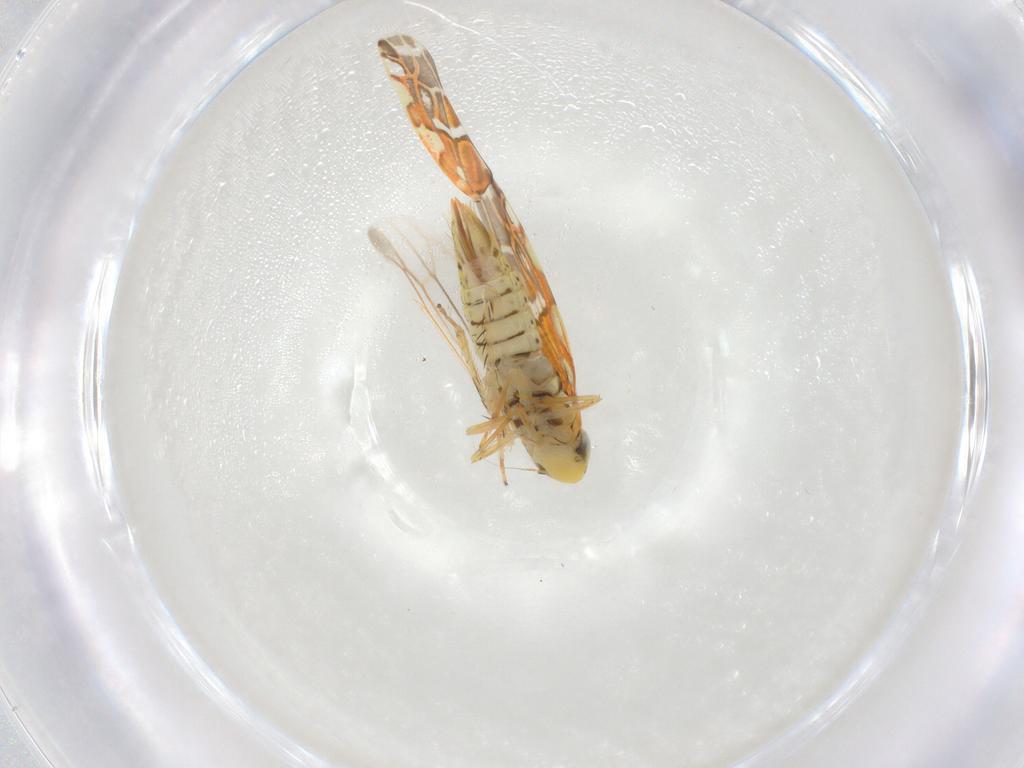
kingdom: Animalia
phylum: Arthropoda
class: Insecta
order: Hemiptera
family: Cicadellidae
